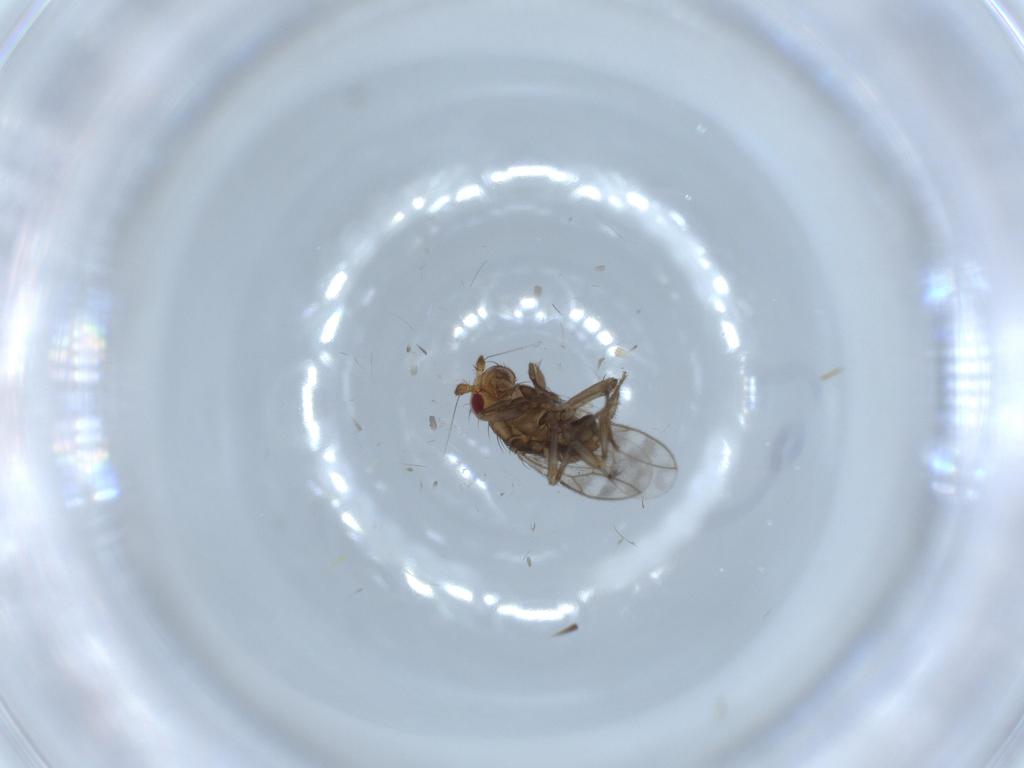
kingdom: Animalia
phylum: Arthropoda
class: Insecta
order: Diptera
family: Sphaeroceridae
